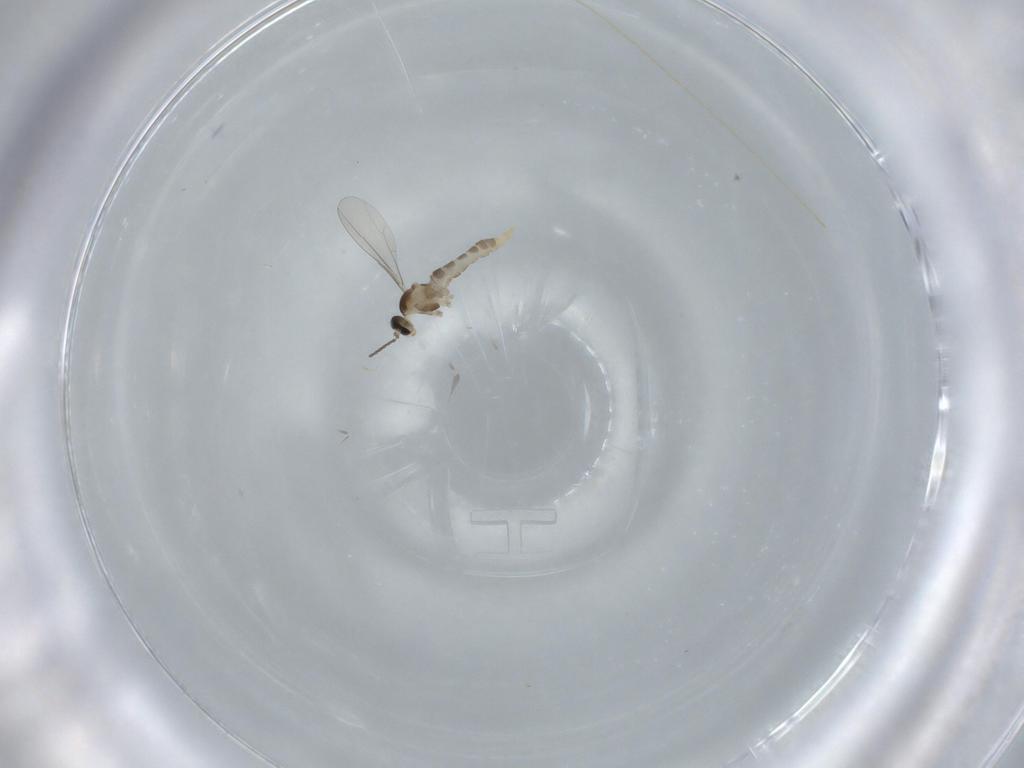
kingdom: Animalia
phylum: Arthropoda
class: Insecta
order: Diptera
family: Cecidomyiidae
